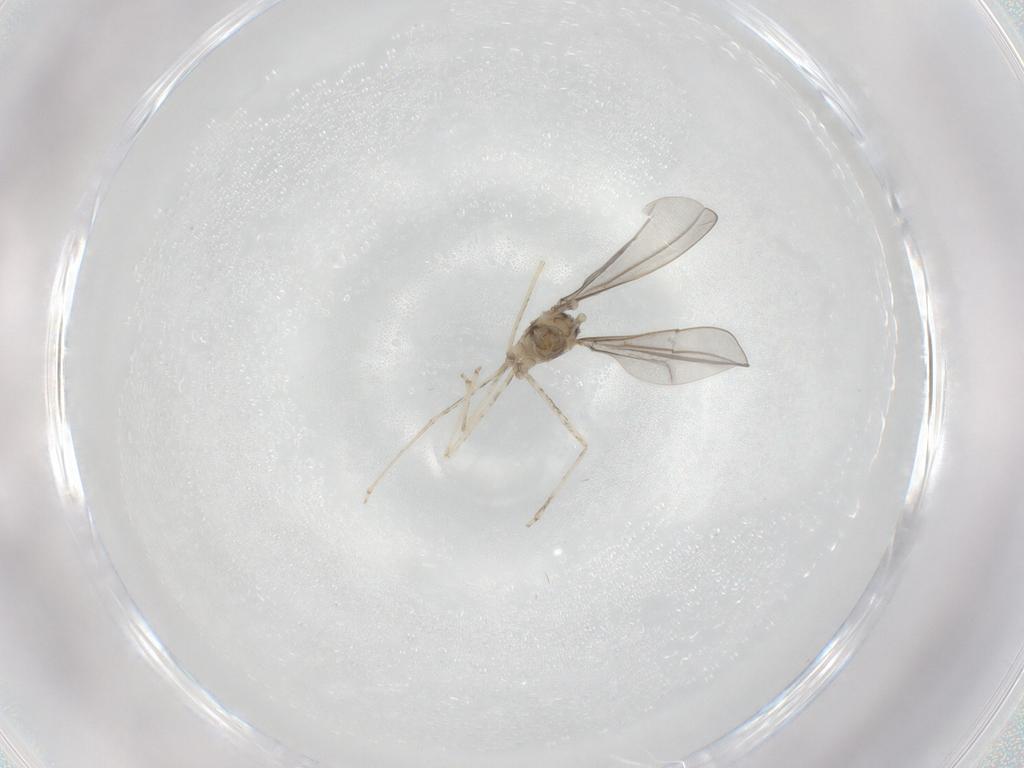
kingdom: Animalia
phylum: Arthropoda
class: Insecta
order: Diptera
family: Cecidomyiidae
